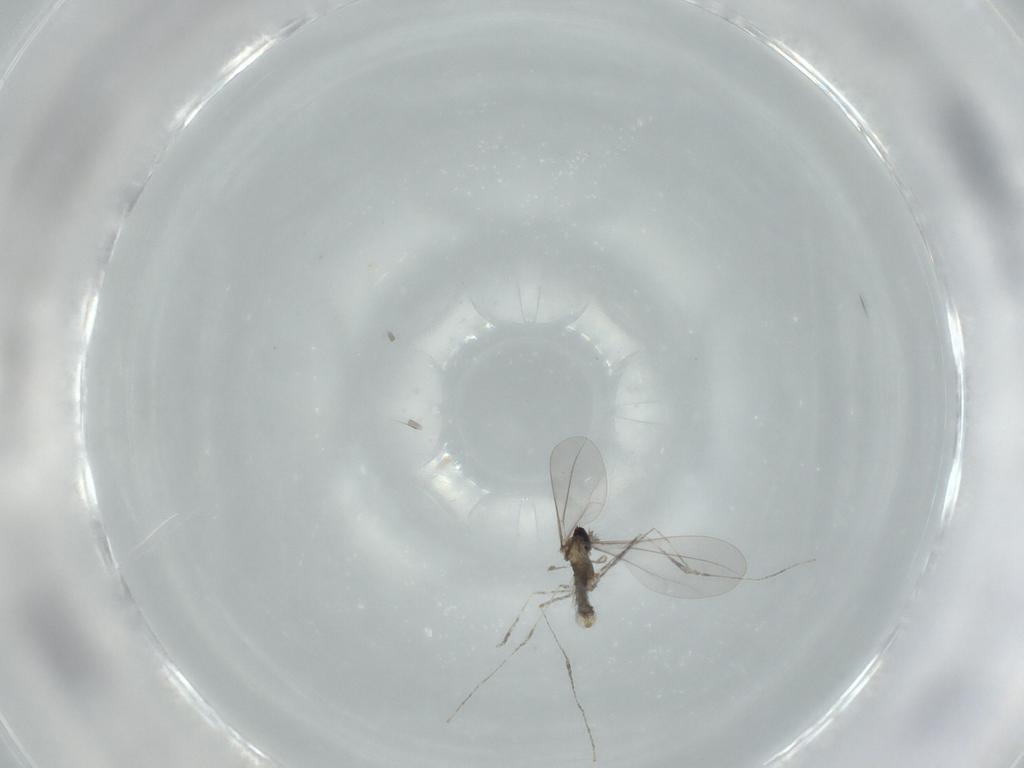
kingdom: Animalia
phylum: Arthropoda
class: Insecta
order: Diptera
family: Cecidomyiidae
